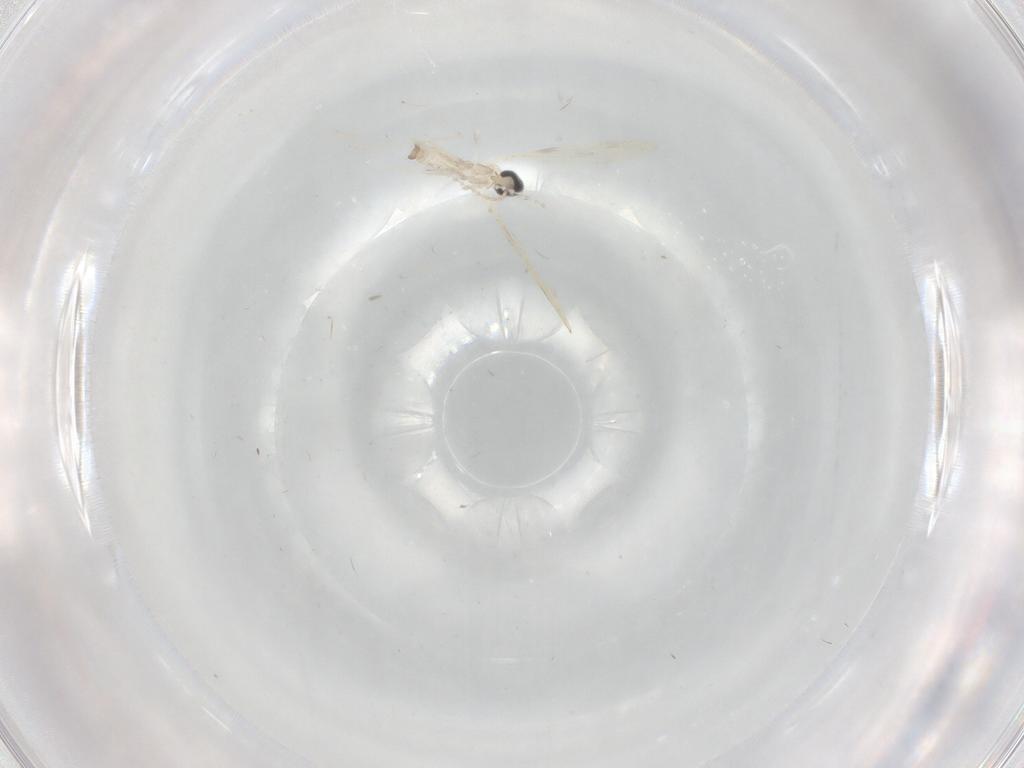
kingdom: Animalia
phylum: Arthropoda
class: Insecta
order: Diptera
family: Cecidomyiidae
